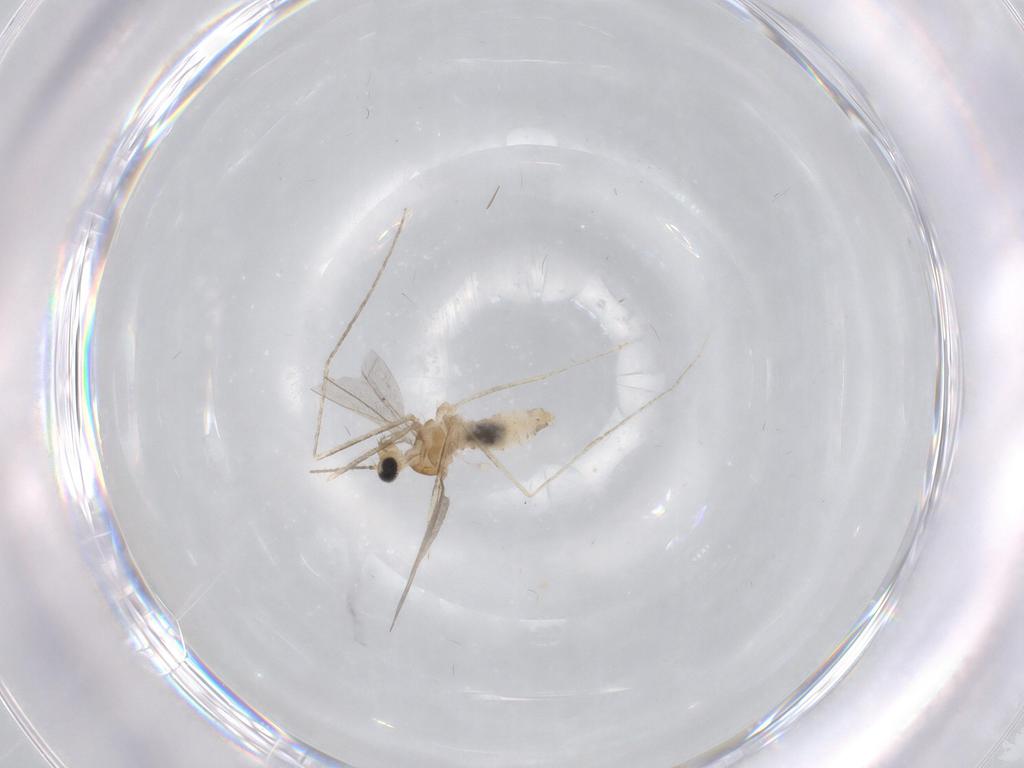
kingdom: Animalia
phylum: Arthropoda
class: Insecta
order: Diptera
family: Cecidomyiidae
